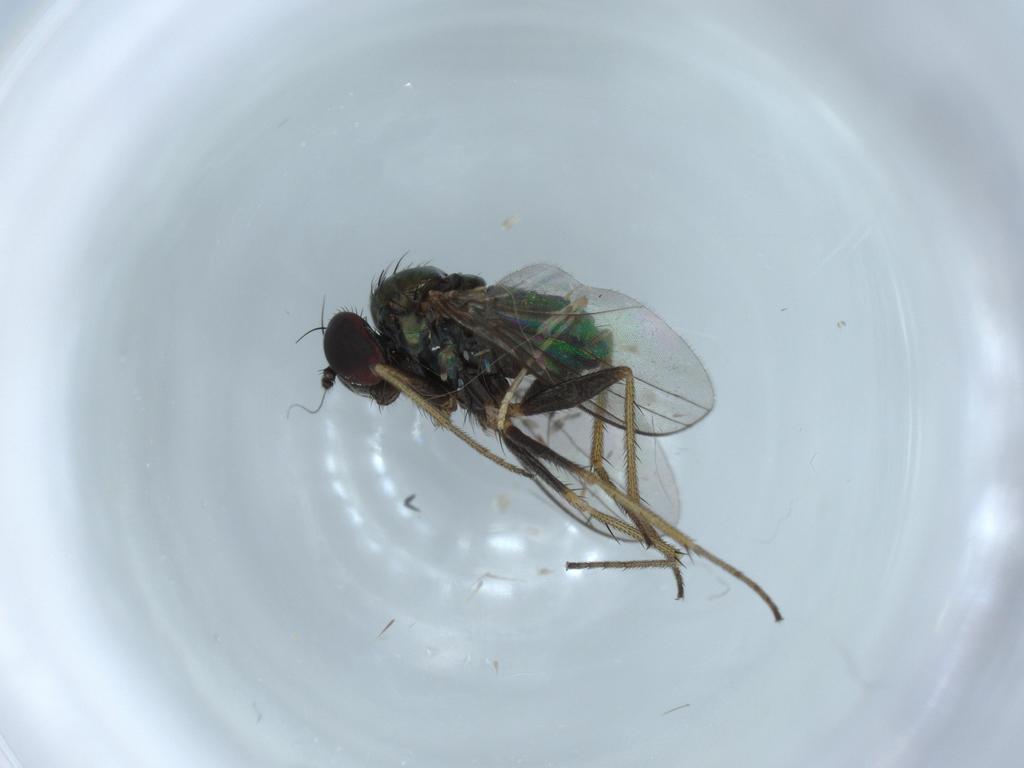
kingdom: Animalia
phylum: Arthropoda
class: Insecta
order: Diptera
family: Psychodidae
